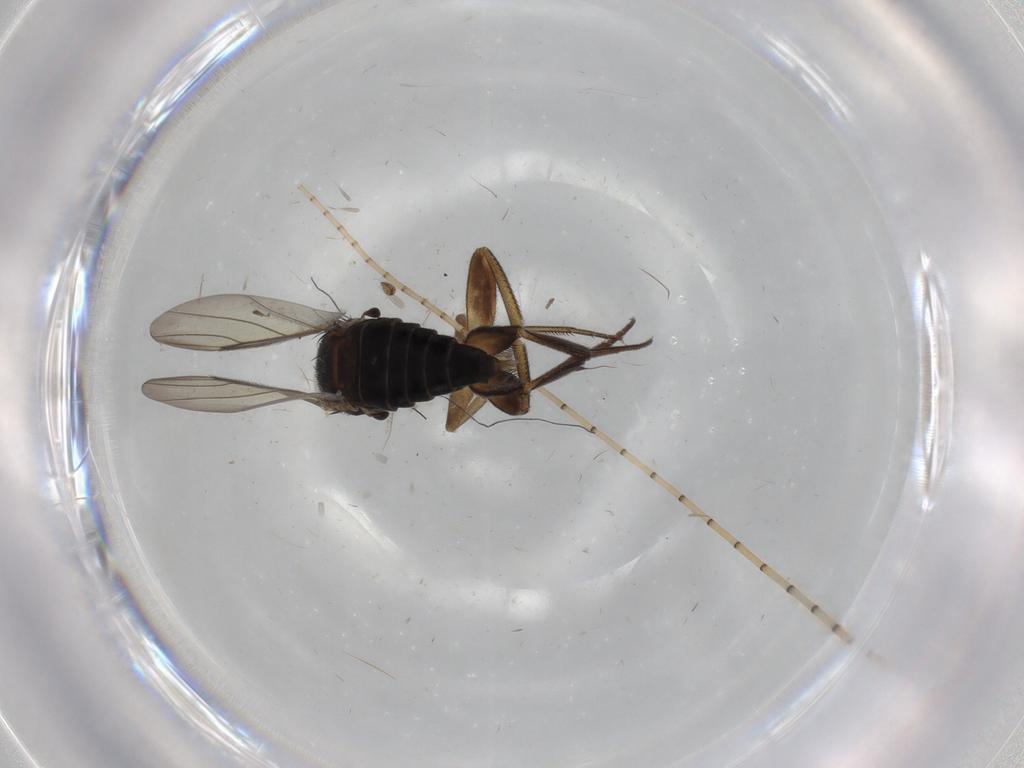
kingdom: Animalia
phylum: Arthropoda
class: Insecta
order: Diptera
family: Phoridae
